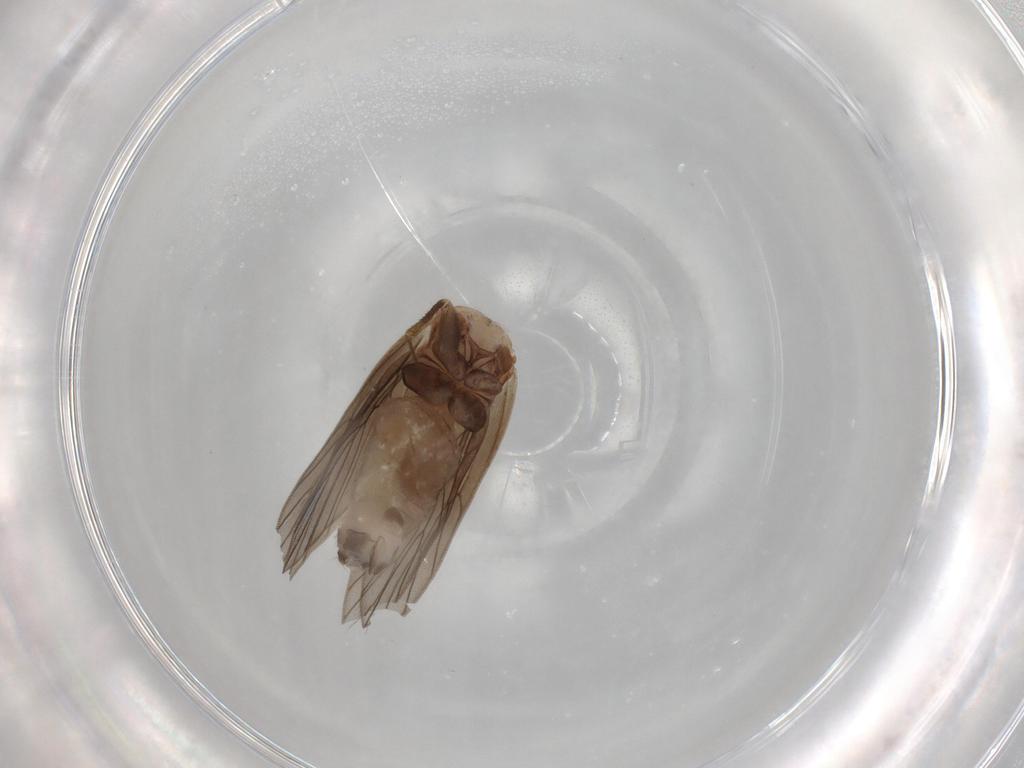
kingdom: Animalia
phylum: Arthropoda
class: Insecta
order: Psocodea
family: Lepidopsocidae
